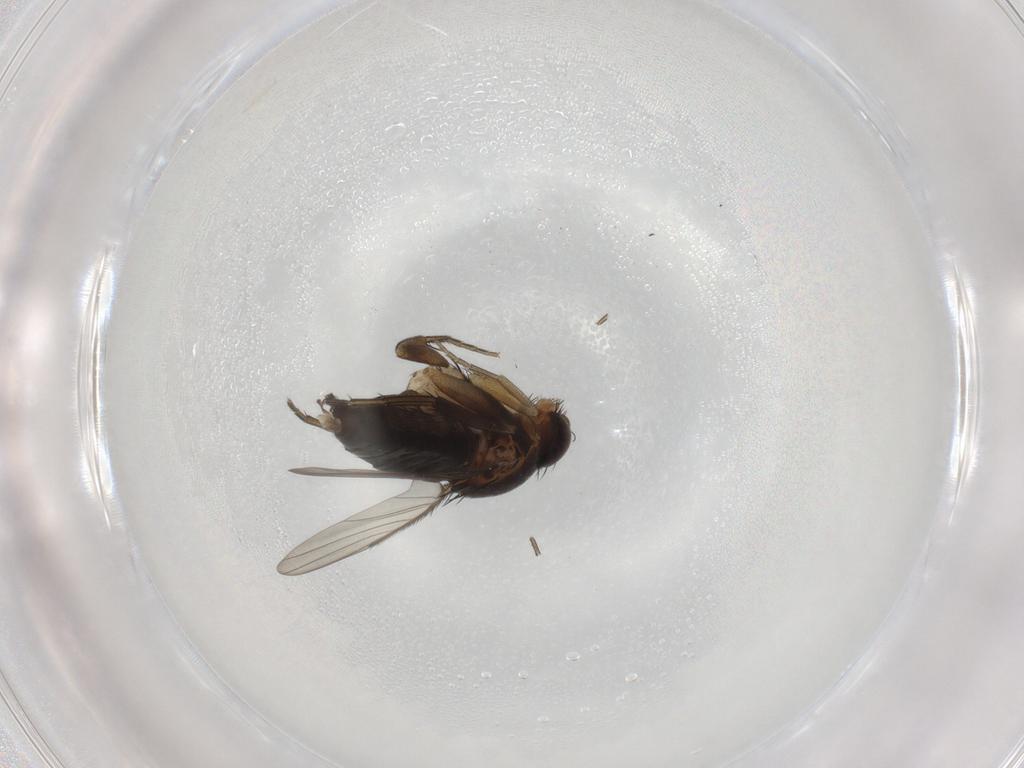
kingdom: Animalia
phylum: Arthropoda
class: Insecta
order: Diptera
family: Phoridae
